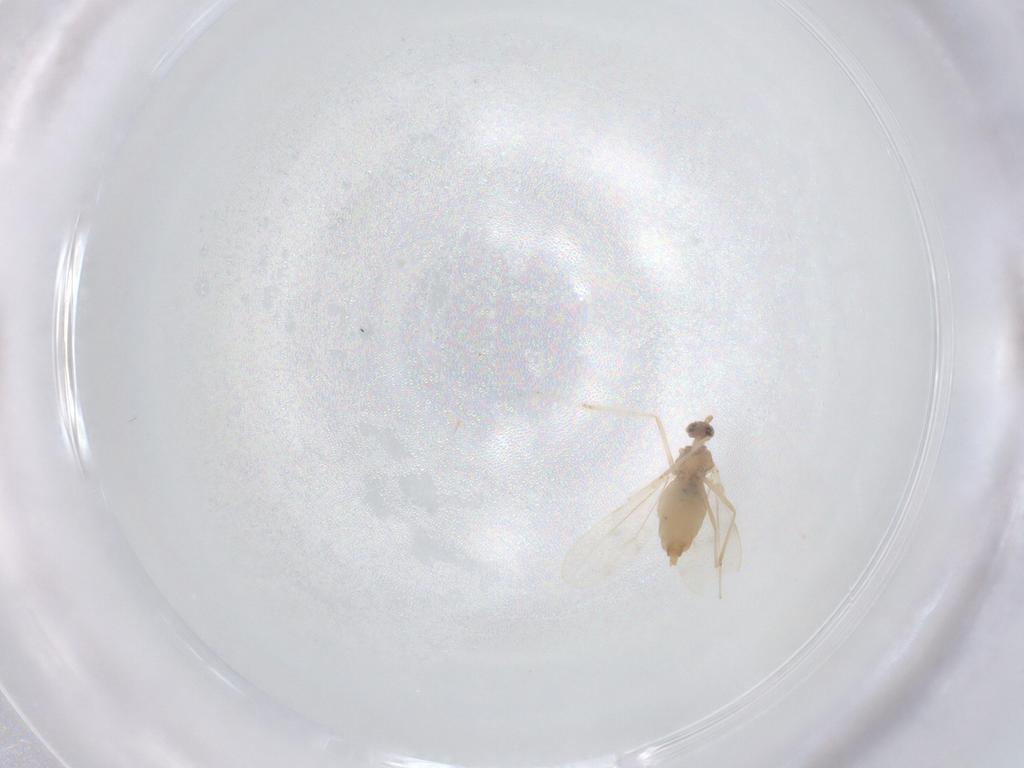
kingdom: Animalia
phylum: Arthropoda
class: Insecta
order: Diptera
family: Cecidomyiidae
